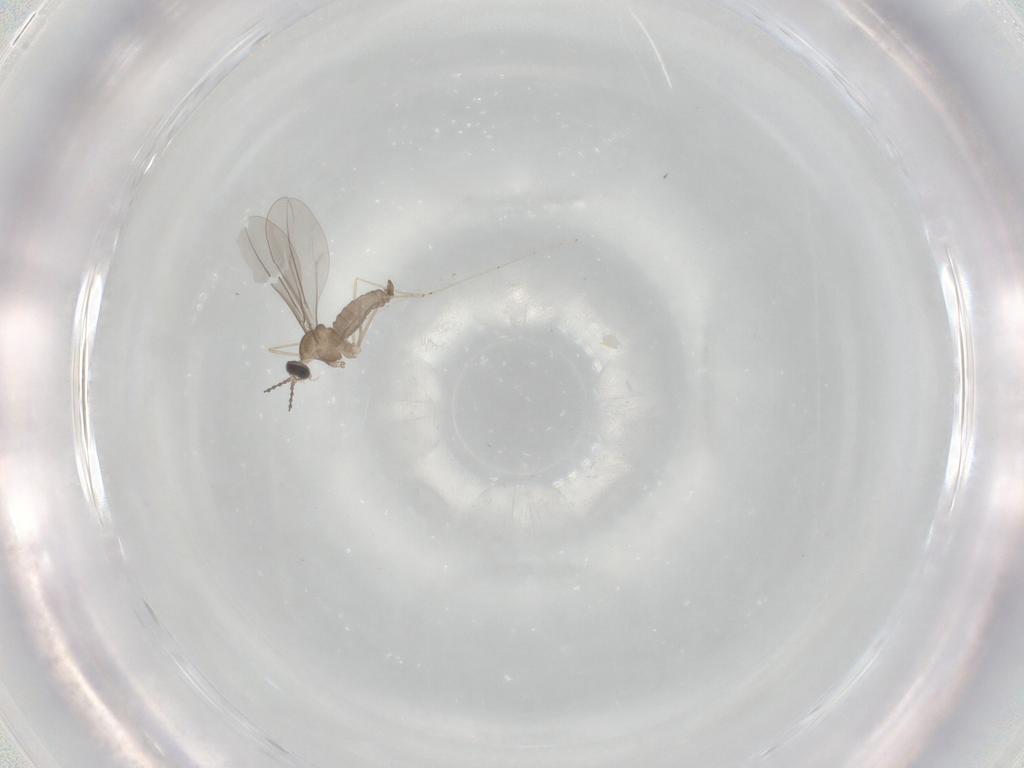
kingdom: Animalia
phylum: Arthropoda
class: Insecta
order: Diptera
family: Cecidomyiidae
